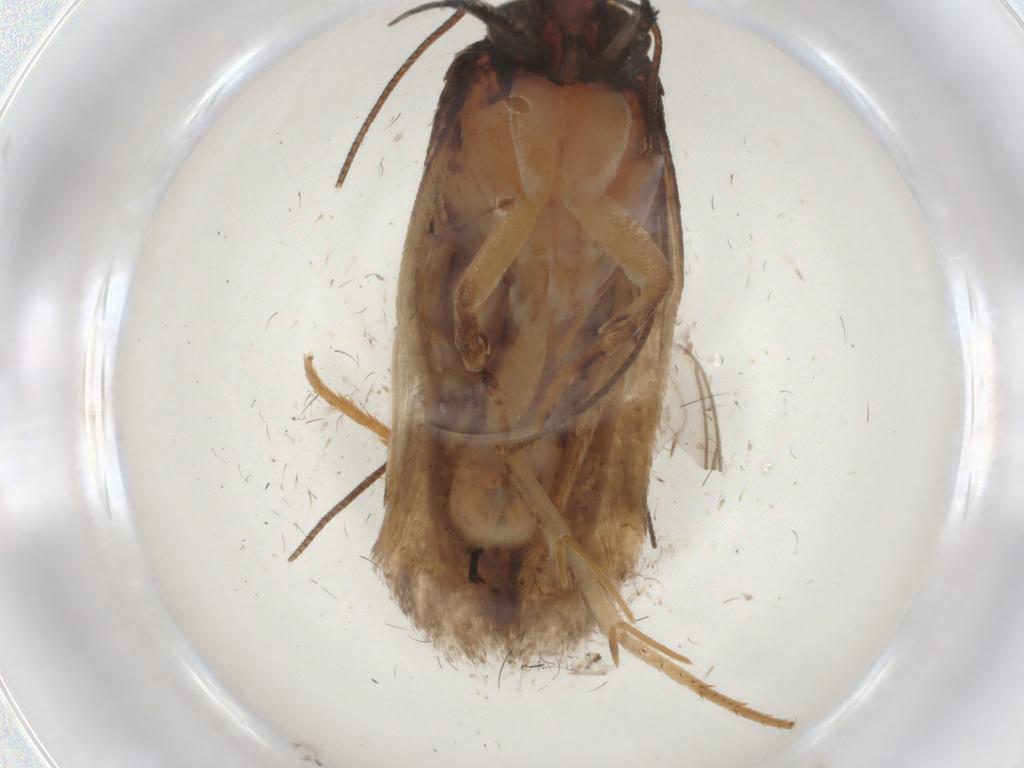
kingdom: Animalia
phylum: Arthropoda
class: Insecta
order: Lepidoptera
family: Gelechiidae
